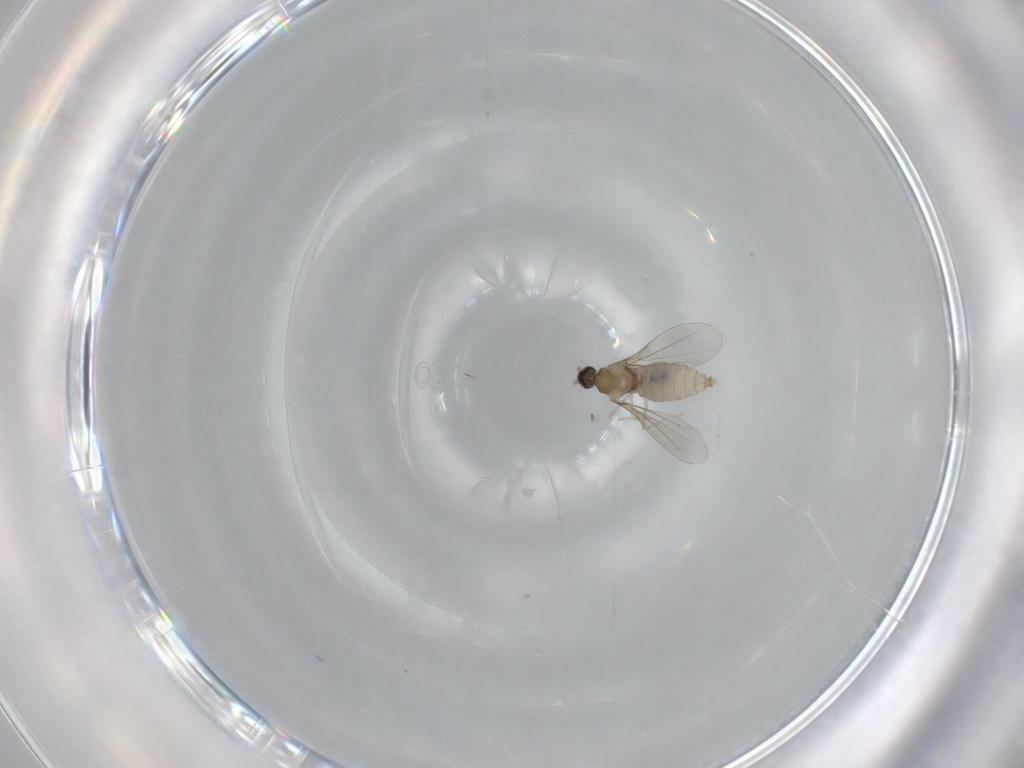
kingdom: Animalia
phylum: Arthropoda
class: Insecta
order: Diptera
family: Cecidomyiidae
